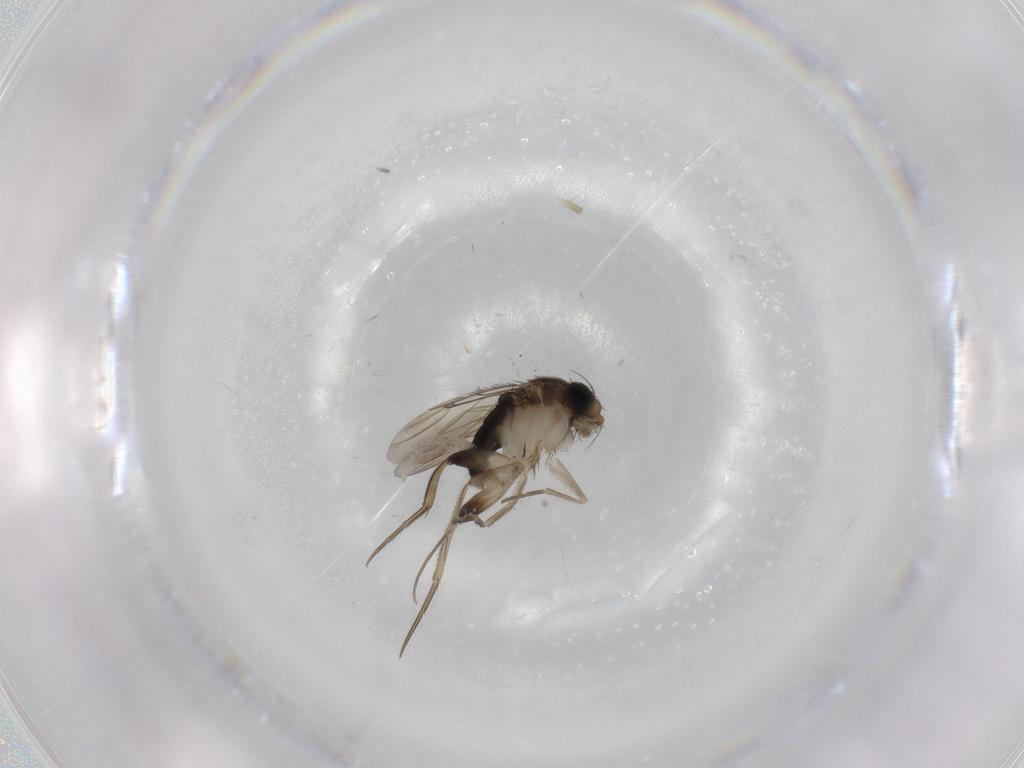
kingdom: Animalia
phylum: Arthropoda
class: Insecta
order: Diptera
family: Phoridae
